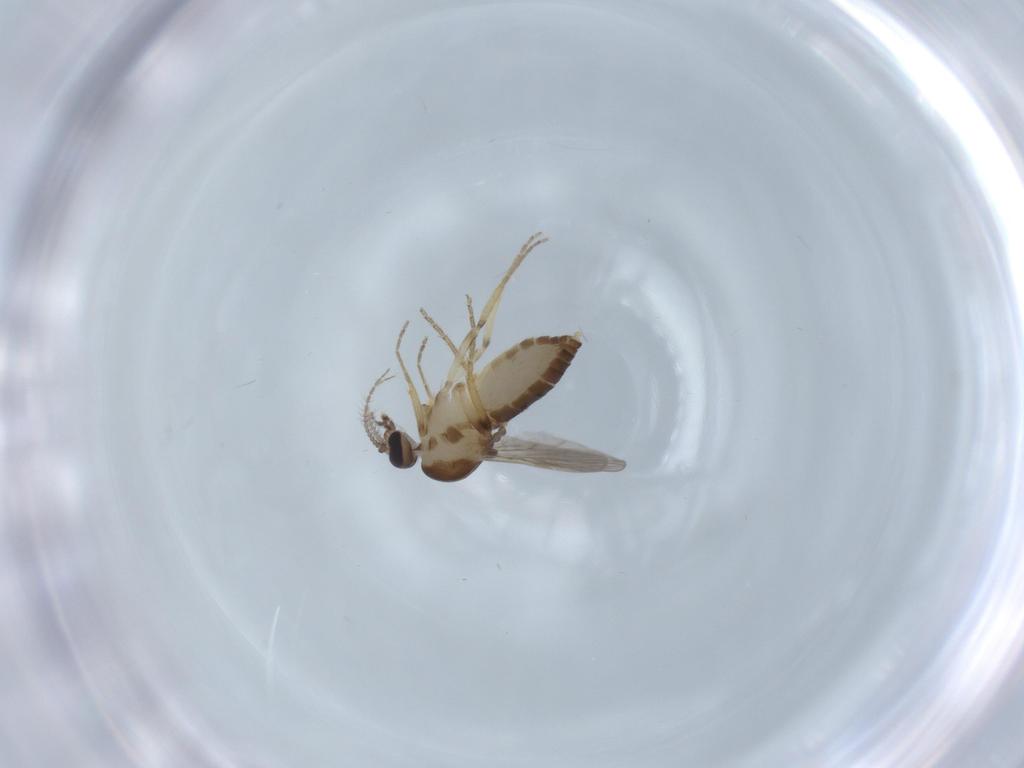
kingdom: Animalia
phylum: Arthropoda
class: Insecta
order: Diptera
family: Ceratopogonidae
